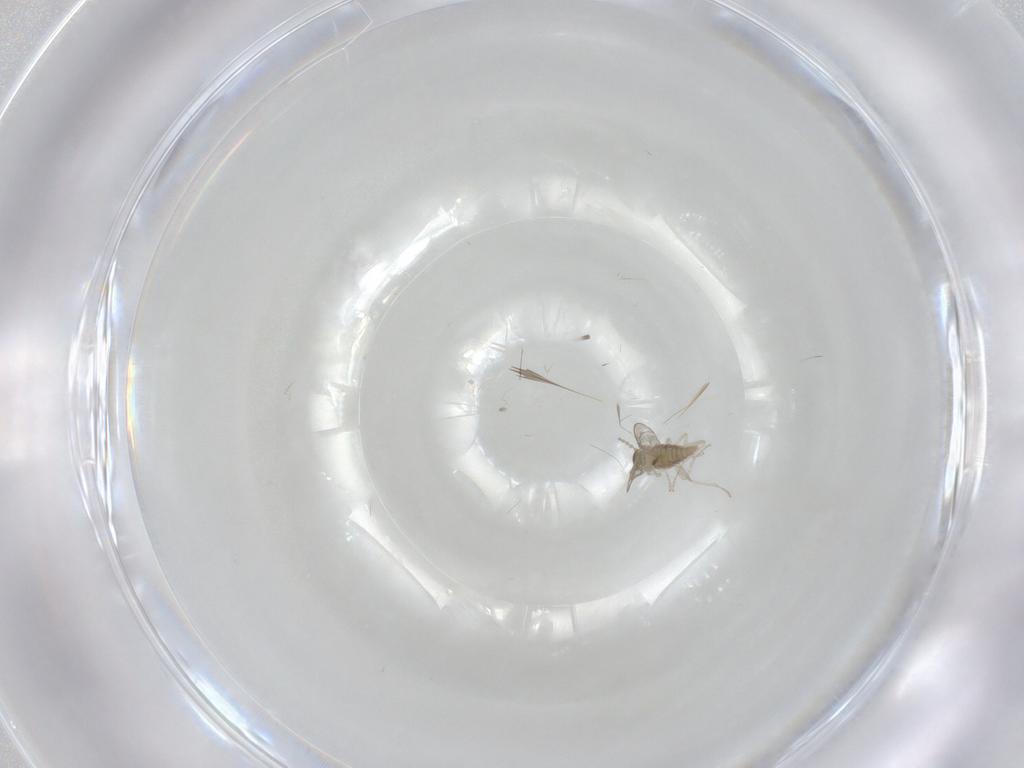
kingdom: Animalia
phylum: Arthropoda
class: Insecta
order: Diptera
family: Cecidomyiidae
